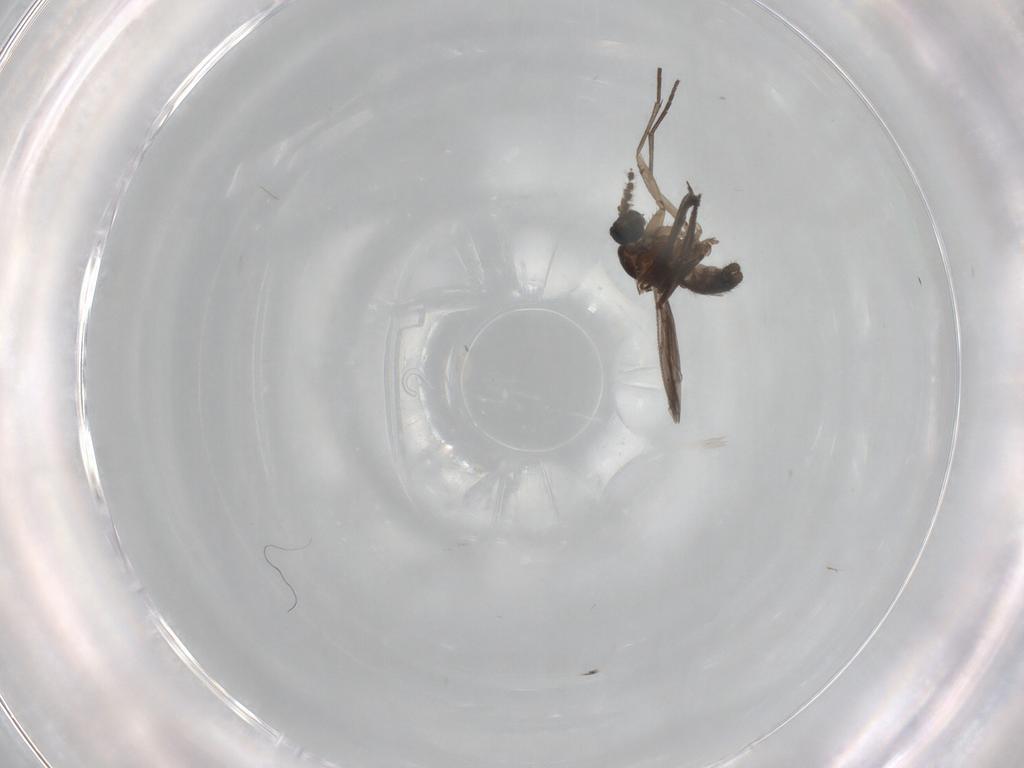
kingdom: Animalia
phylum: Arthropoda
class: Insecta
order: Diptera
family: Sciaridae
